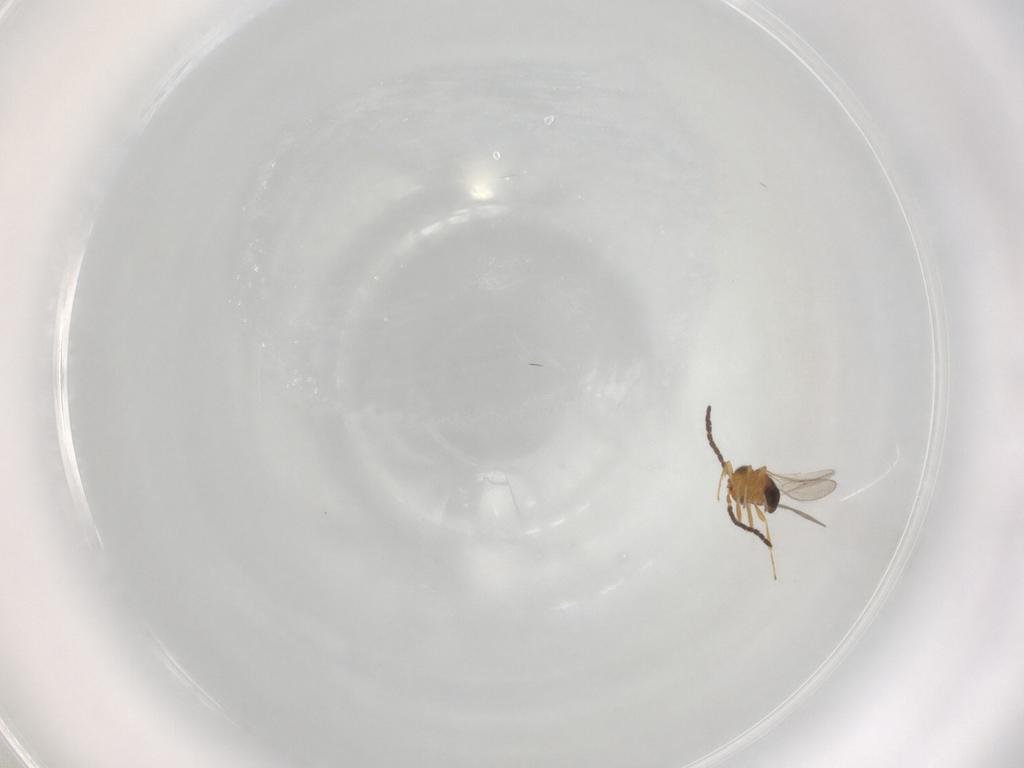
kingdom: Animalia
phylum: Arthropoda
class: Insecta
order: Hymenoptera
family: Scelionidae
